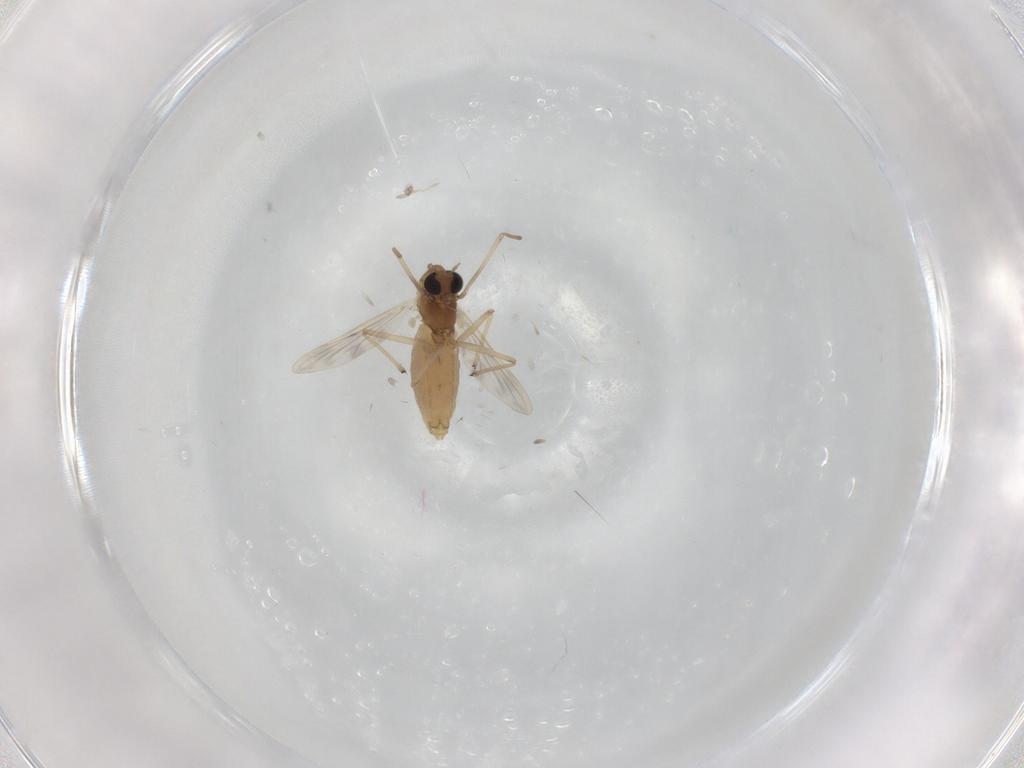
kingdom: Animalia
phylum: Arthropoda
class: Insecta
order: Diptera
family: Chironomidae
